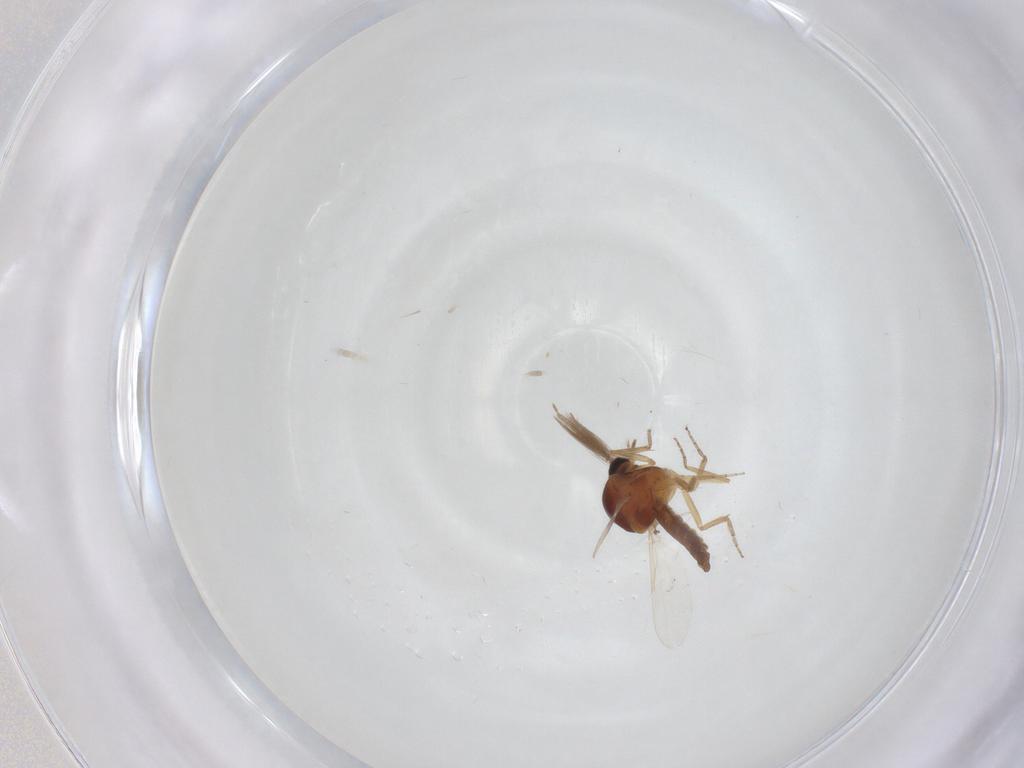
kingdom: Animalia
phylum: Arthropoda
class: Insecta
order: Diptera
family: Ceratopogonidae
